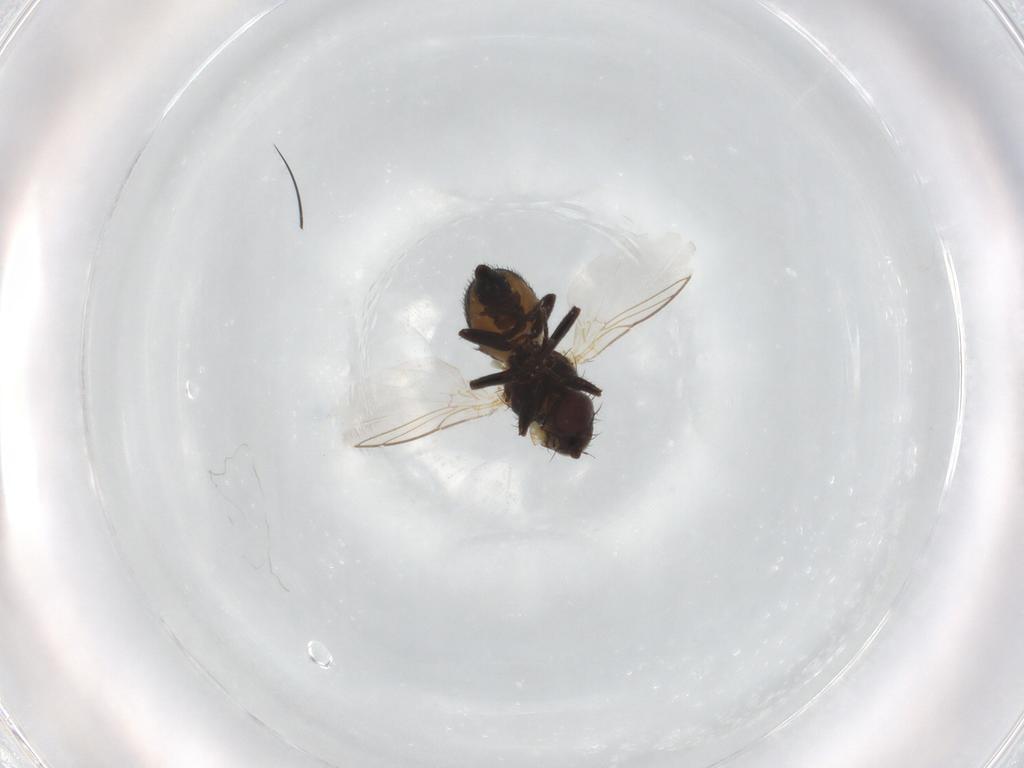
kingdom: Animalia
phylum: Arthropoda
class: Insecta
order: Diptera
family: Agromyzidae
